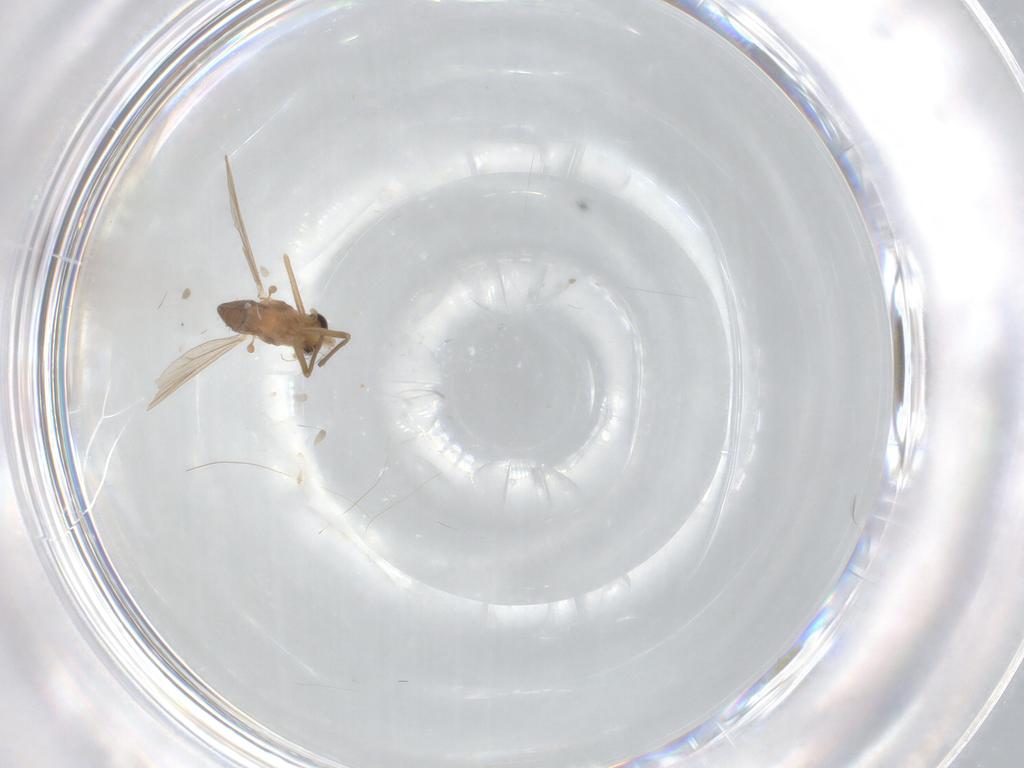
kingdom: Animalia
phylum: Arthropoda
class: Insecta
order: Diptera
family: Chironomidae
